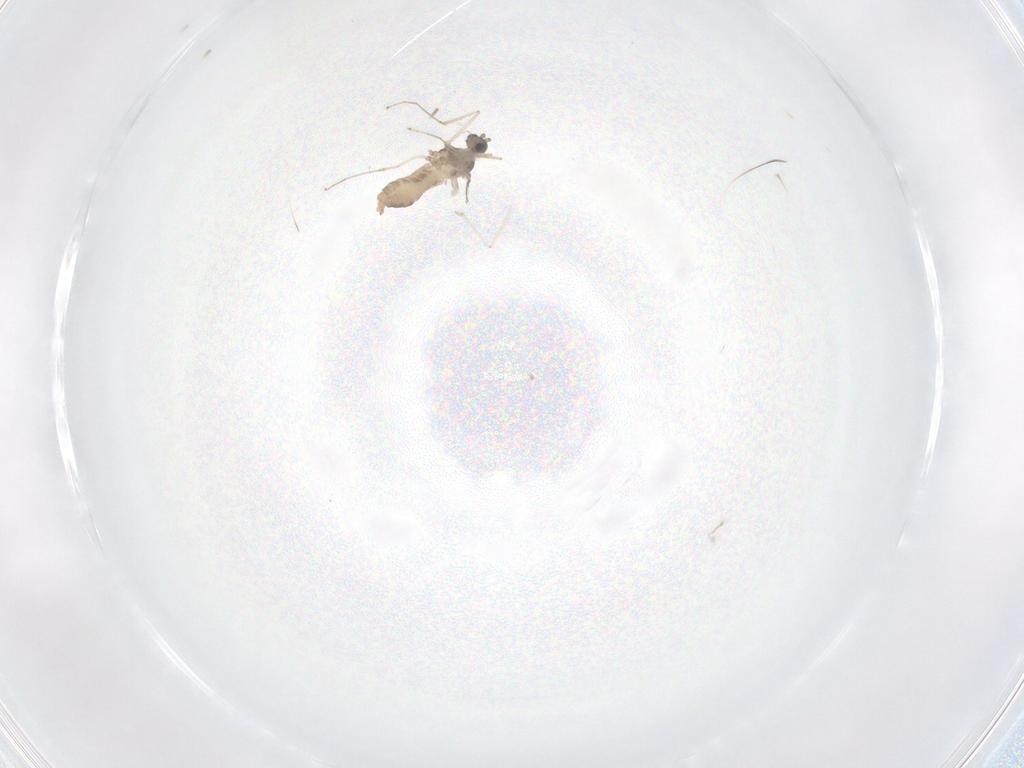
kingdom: Animalia
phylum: Arthropoda
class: Insecta
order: Diptera
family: Cecidomyiidae
